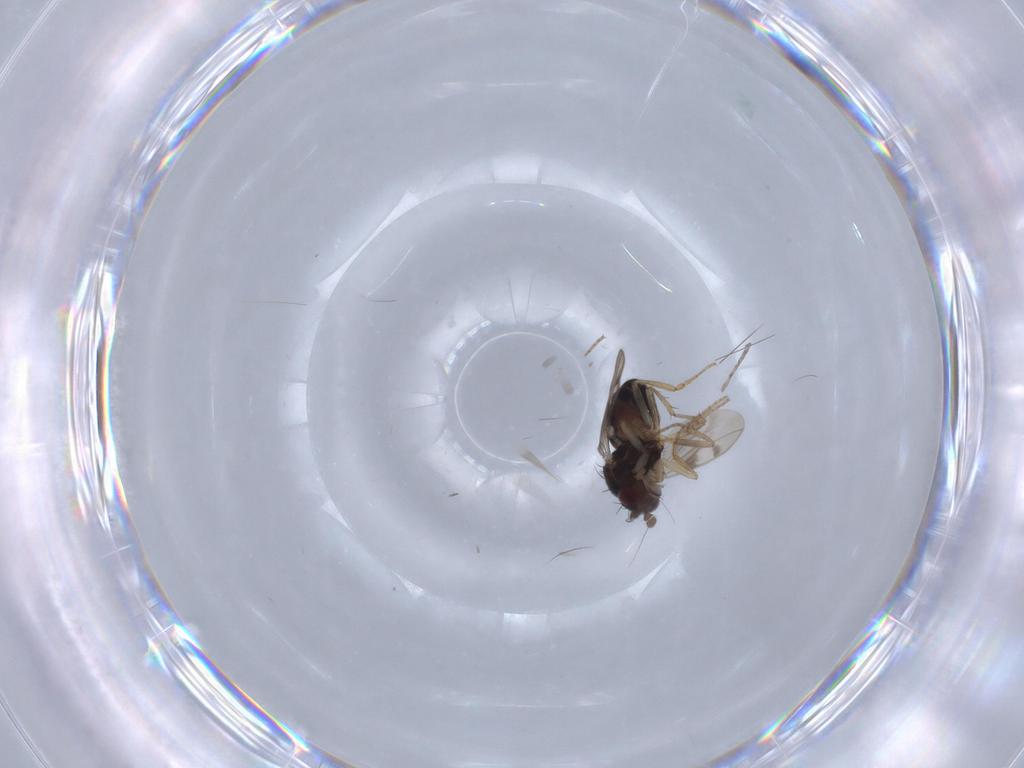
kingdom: Animalia
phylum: Arthropoda
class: Insecta
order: Diptera
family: Sphaeroceridae
